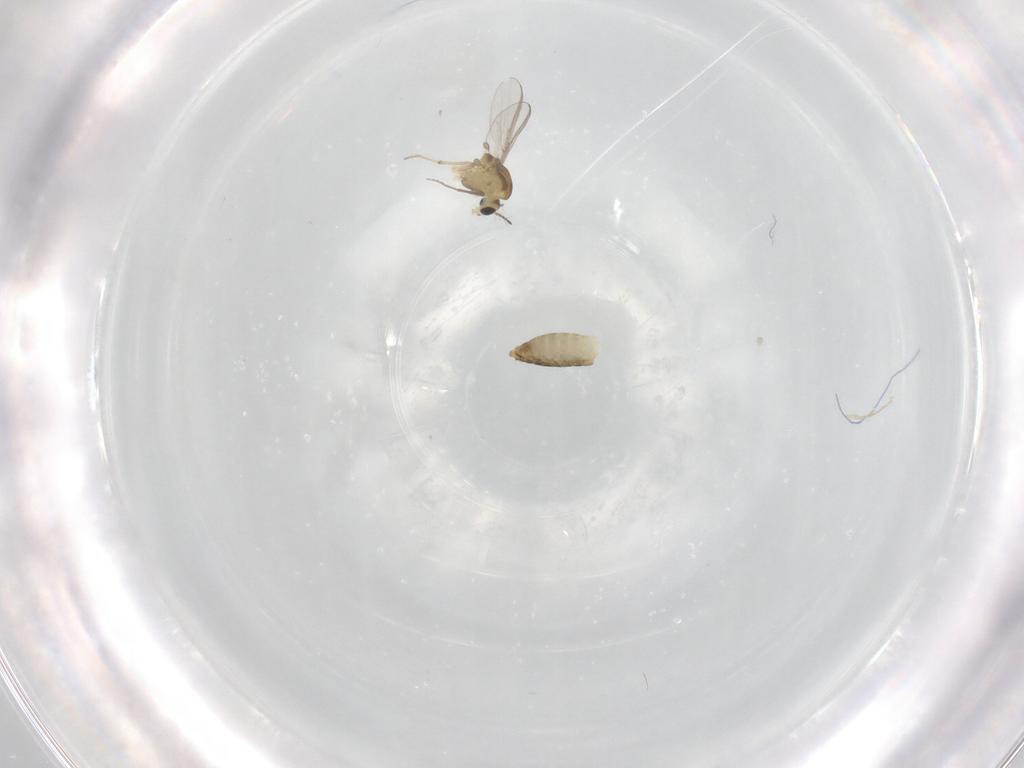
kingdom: Animalia
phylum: Arthropoda
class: Insecta
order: Diptera
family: Chironomidae
